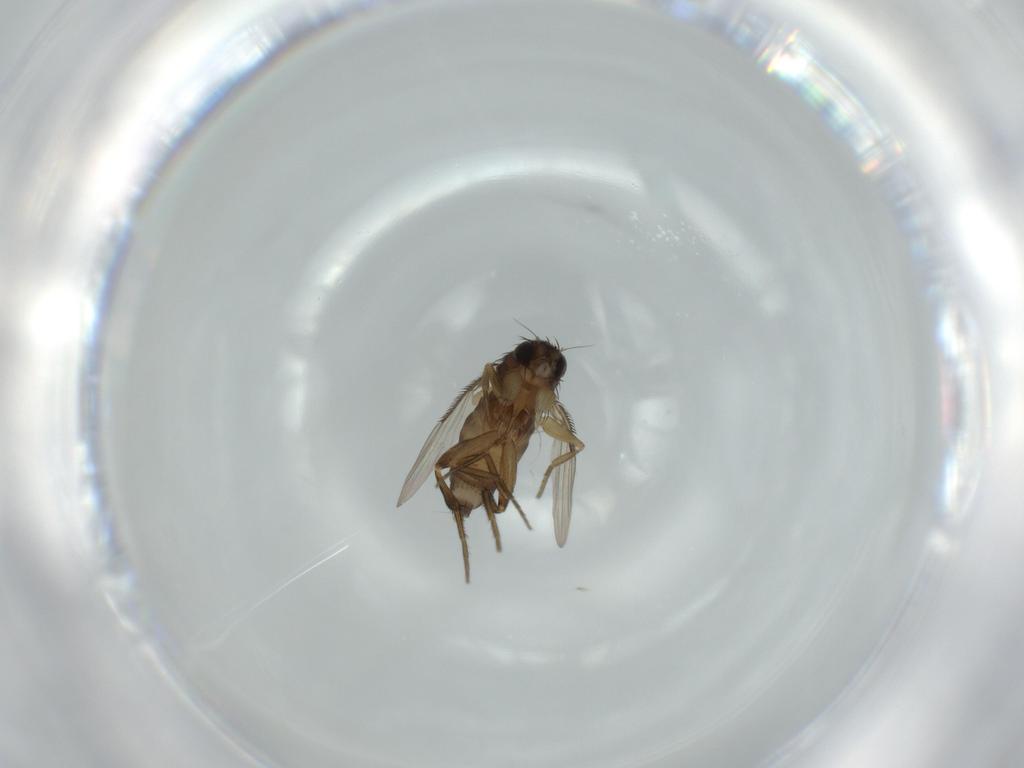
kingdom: Animalia
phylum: Arthropoda
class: Insecta
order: Diptera
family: Phoridae
